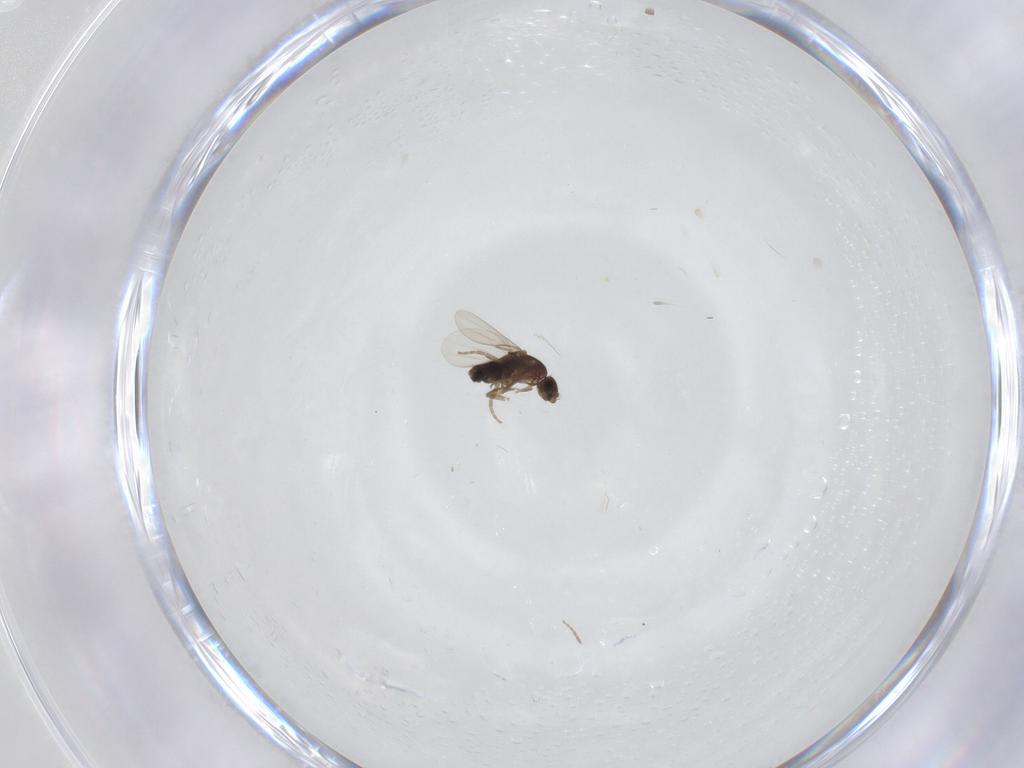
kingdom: Animalia
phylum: Arthropoda
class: Insecta
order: Diptera
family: Phoridae
